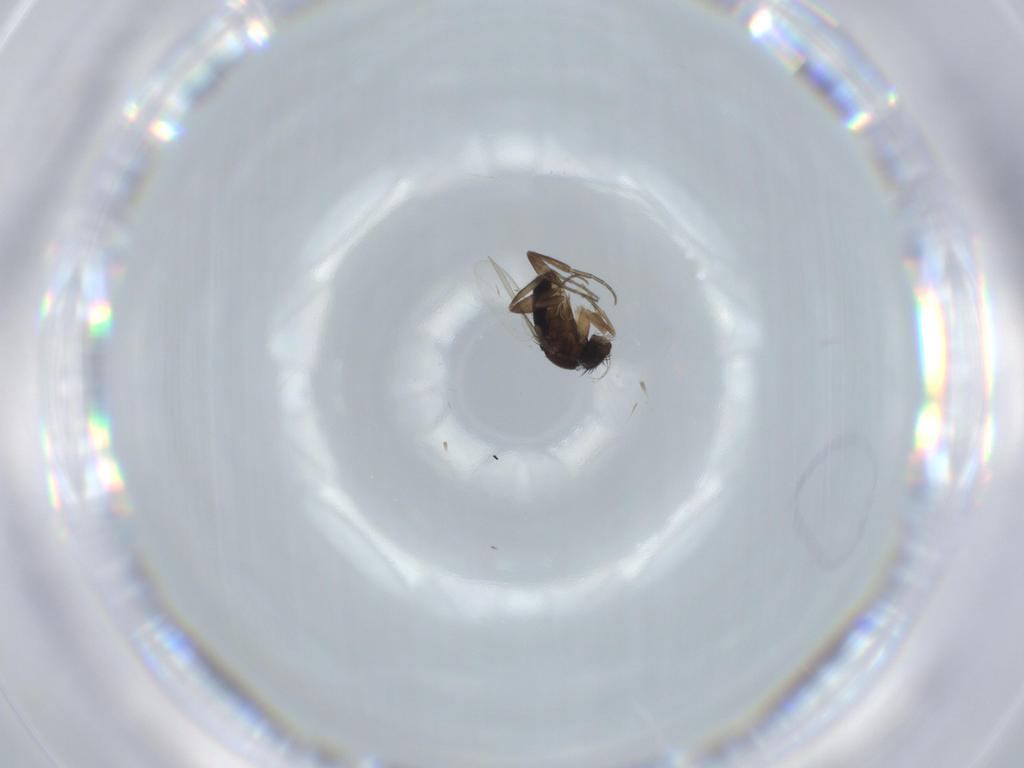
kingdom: Animalia
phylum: Arthropoda
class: Insecta
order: Diptera
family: Phoridae
